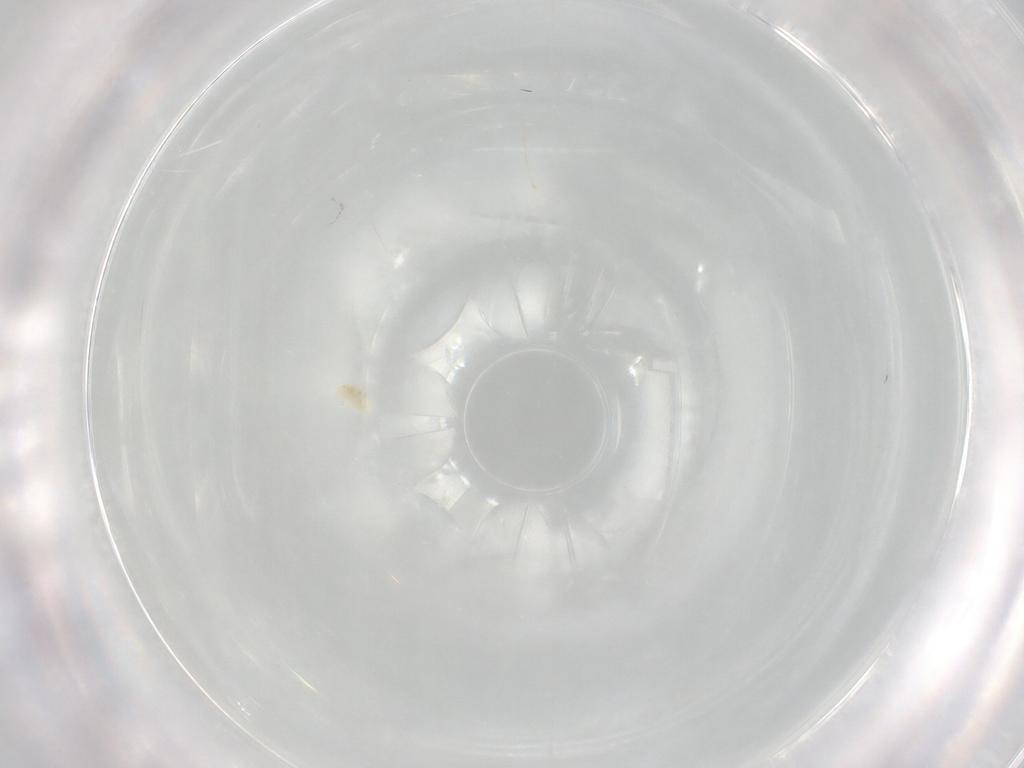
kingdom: Animalia
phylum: Arthropoda
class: Arachnida
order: Trombidiformes
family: Eupodidae
